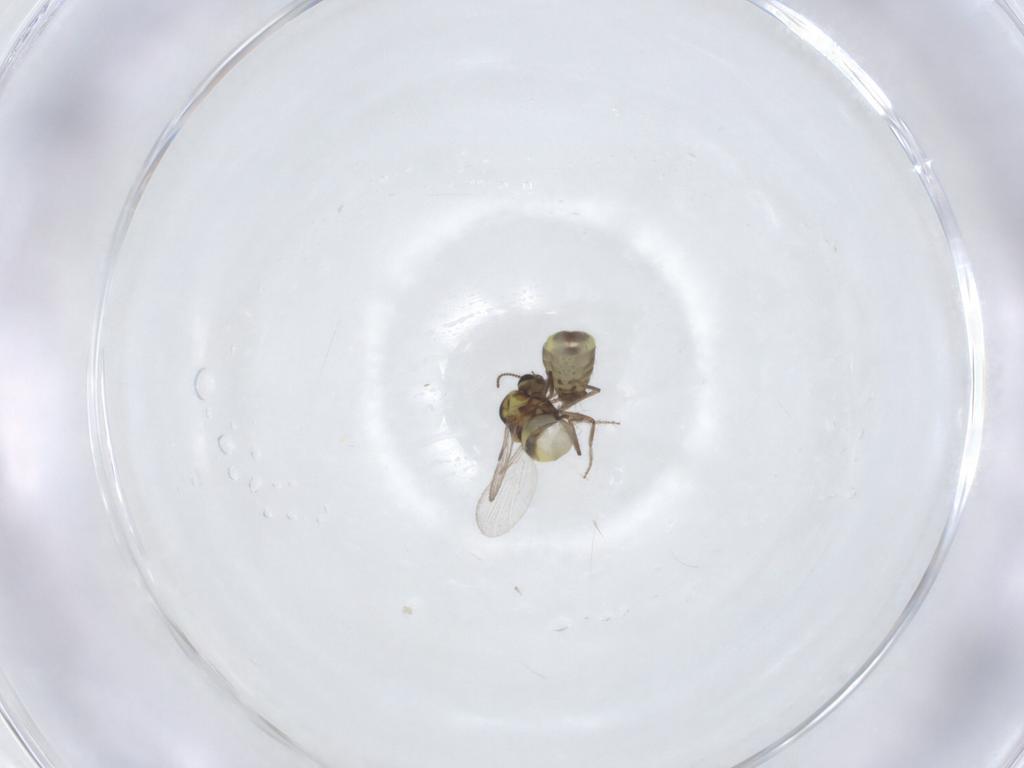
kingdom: Animalia
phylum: Arthropoda
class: Insecta
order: Diptera
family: Ceratopogonidae
